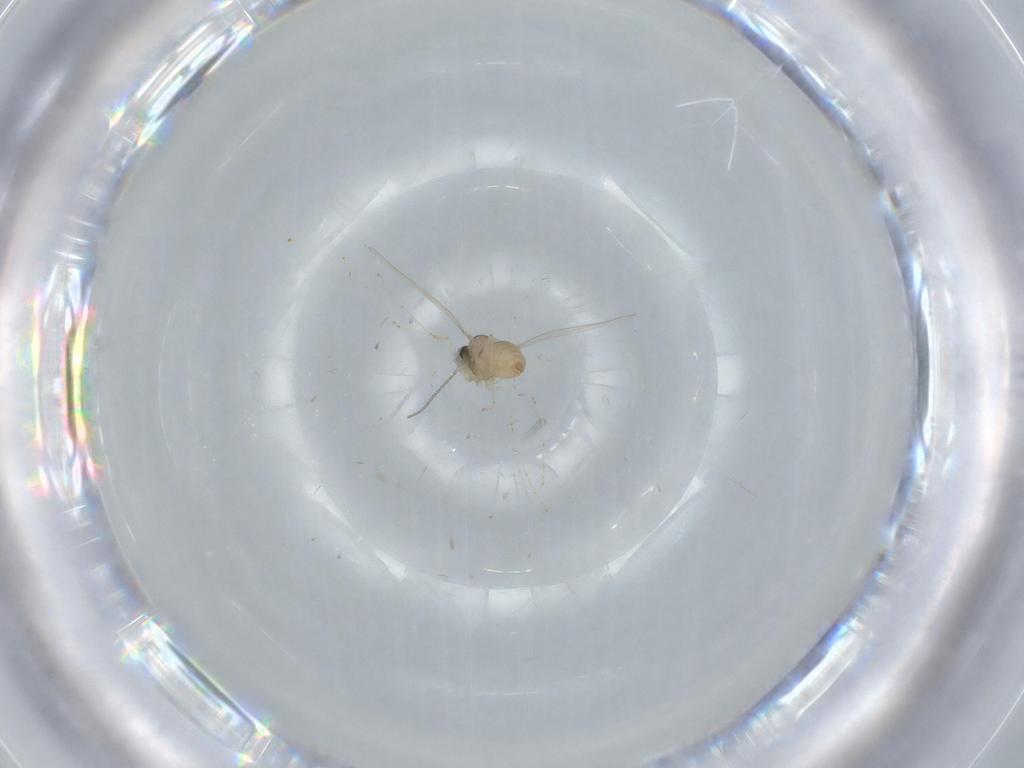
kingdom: Animalia
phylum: Arthropoda
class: Insecta
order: Diptera
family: Cecidomyiidae
